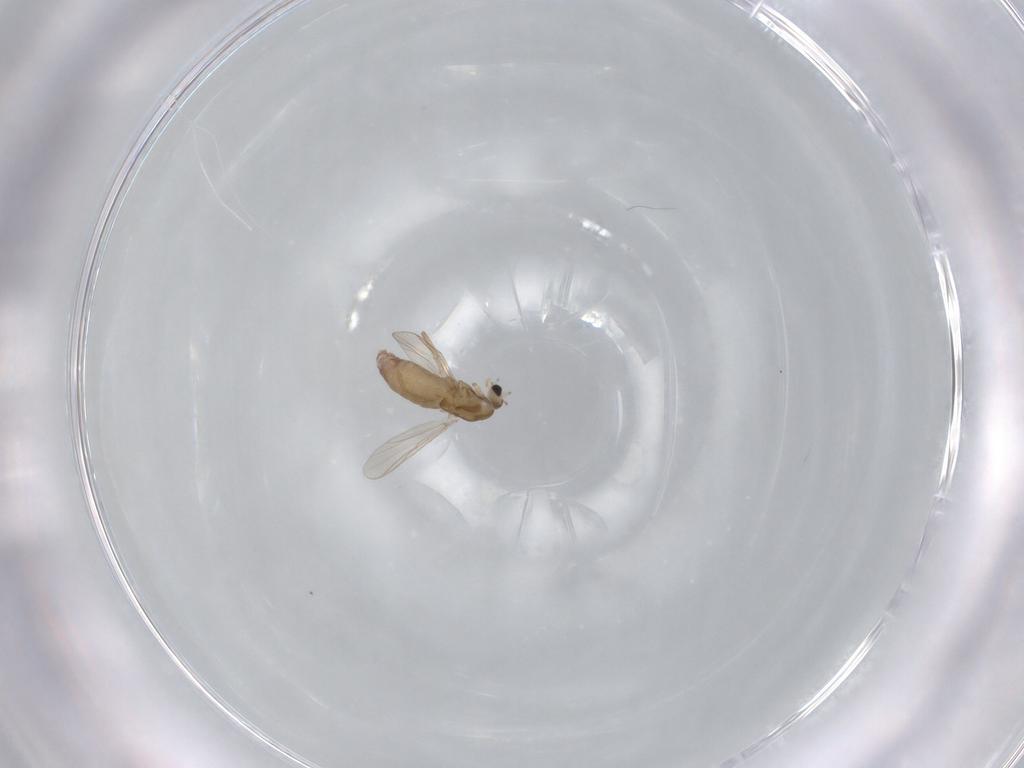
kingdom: Animalia
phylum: Arthropoda
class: Insecta
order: Diptera
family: Chironomidae
